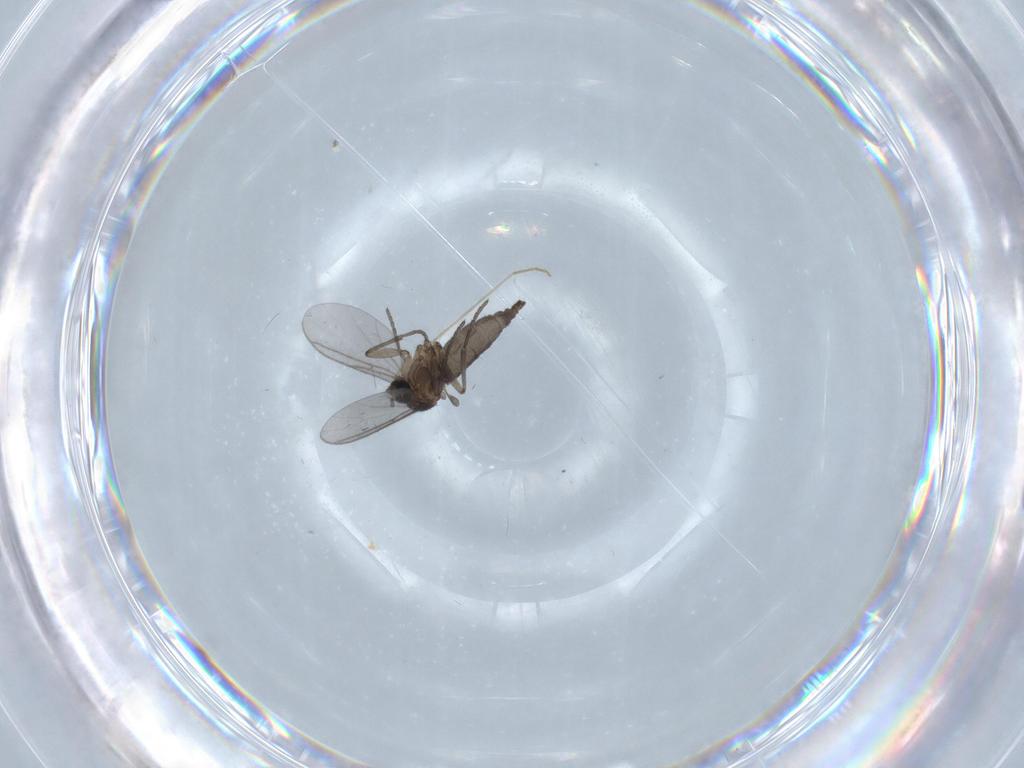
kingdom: Animalia
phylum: Arthropoda
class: Insecta
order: Diptera
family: Chironomidae
